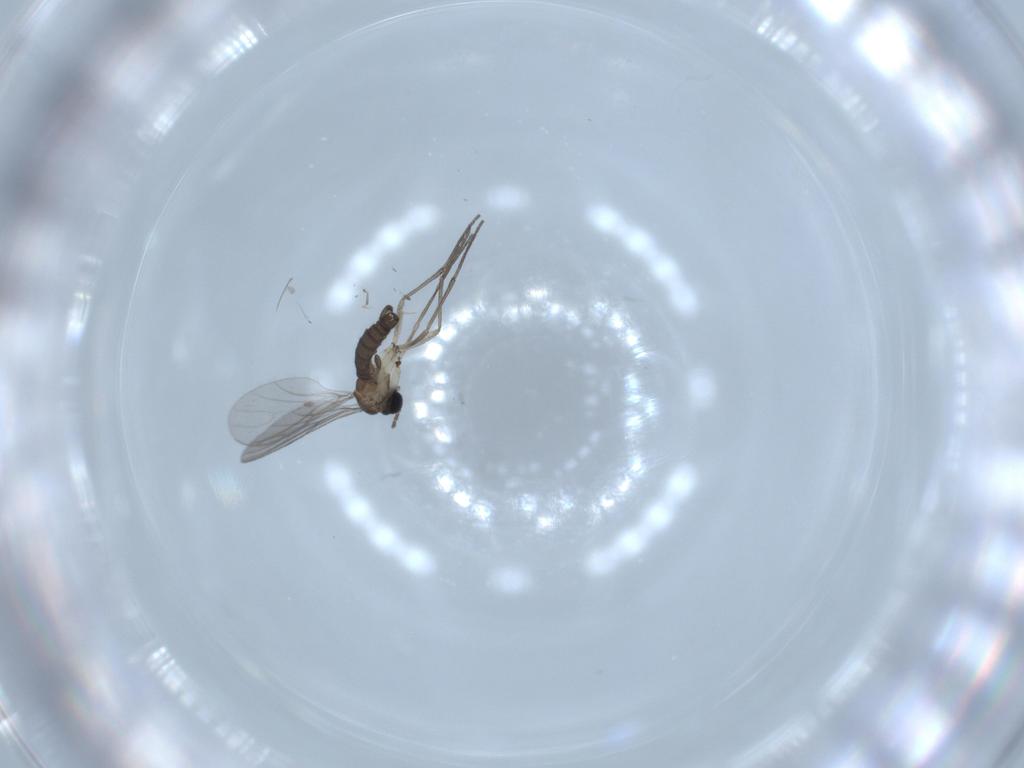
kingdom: Animalia
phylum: Arthropoda
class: Insecta
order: Diptera
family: Sciaridae
